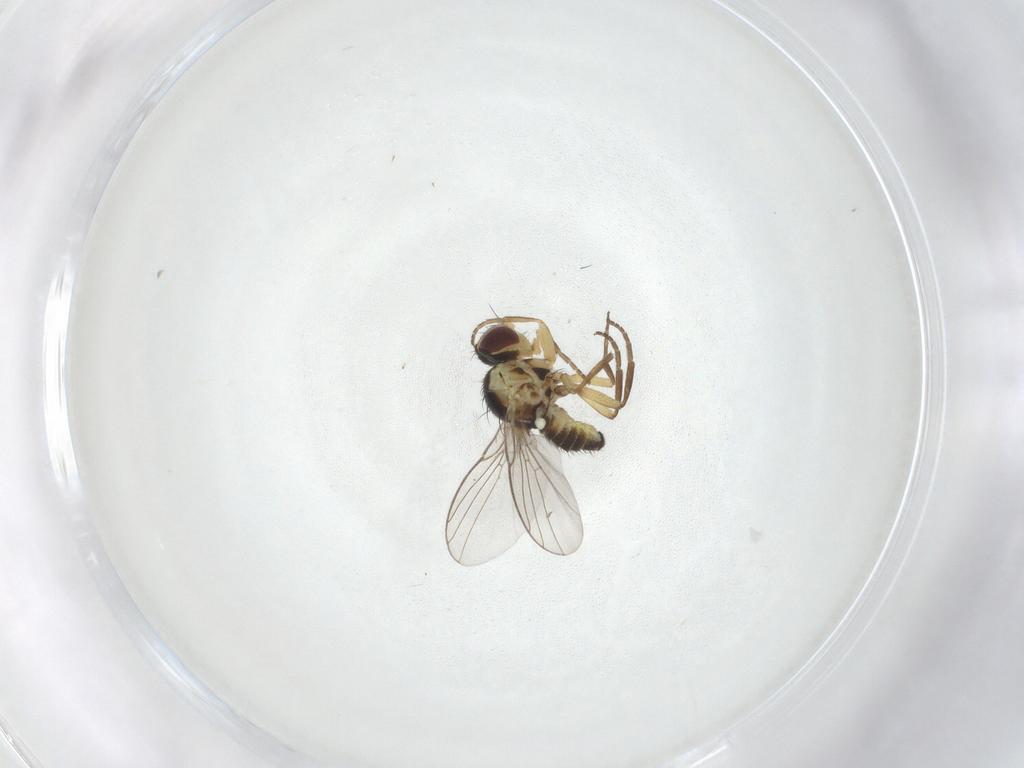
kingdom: Animalia
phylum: Arthropoda
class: Insecta
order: Diptera
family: Agromyzidae
